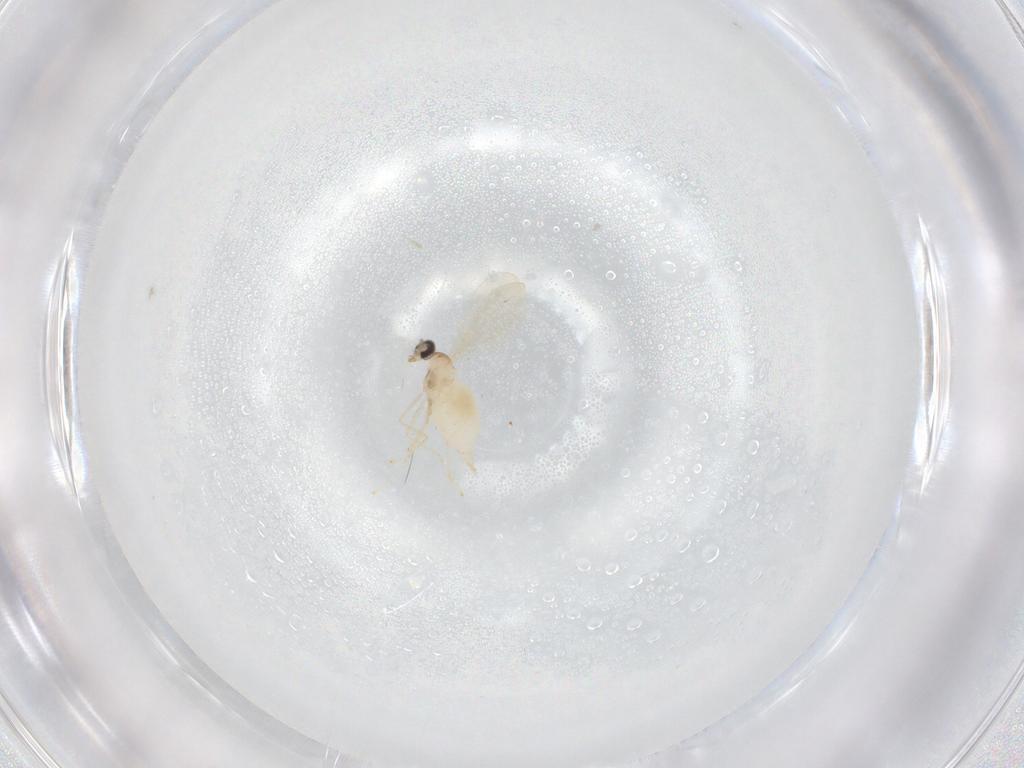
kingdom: Animalia
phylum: Arthropoda
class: Insecta
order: Diptera
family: Cecidomyiidae
